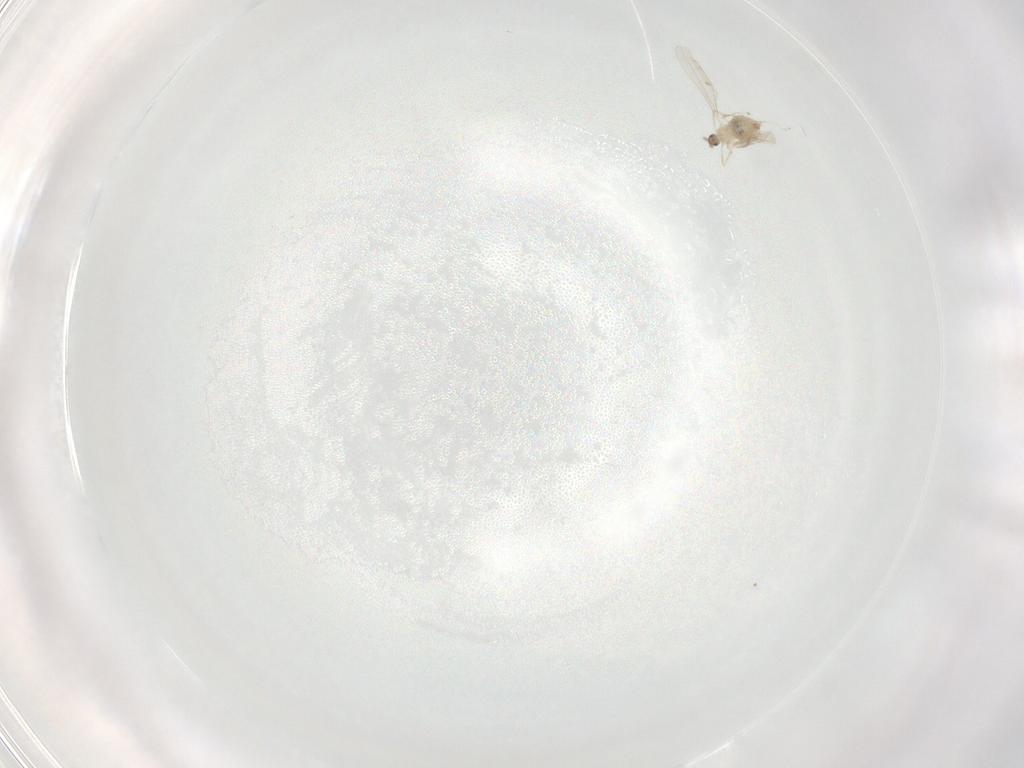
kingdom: Animalia
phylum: Arthropoda
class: Insecta
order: Diptera
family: Cecidomyiidae
